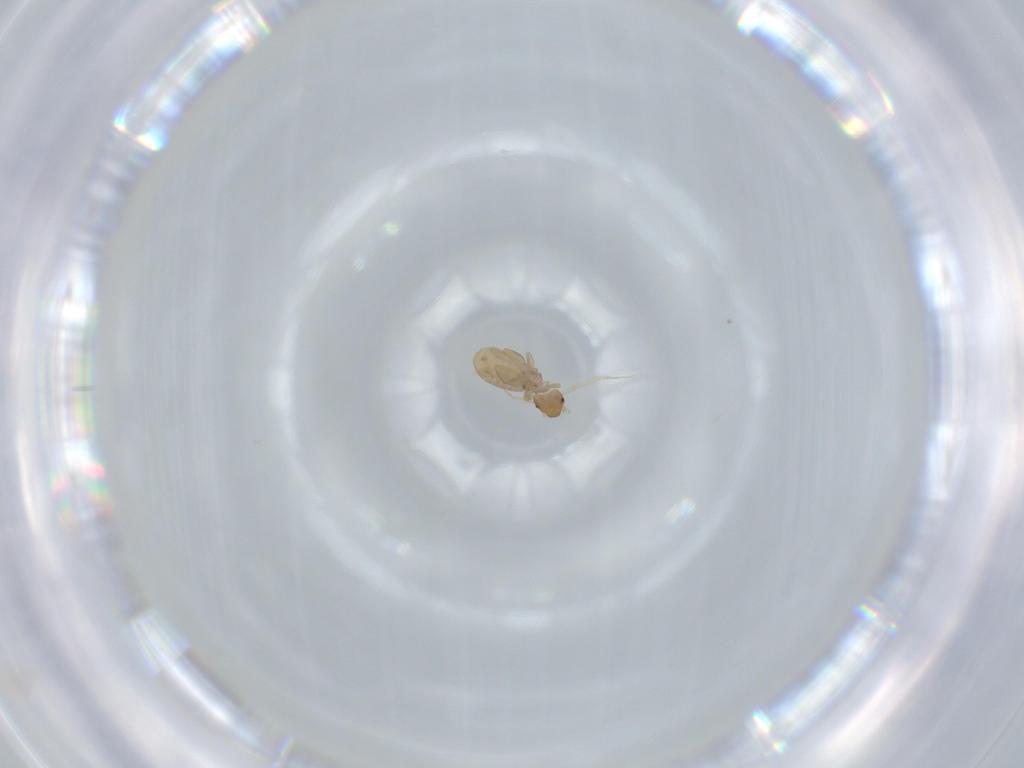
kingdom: Animalia
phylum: Arthropoda
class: Insecta
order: Psocodea
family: Liposcelididae
